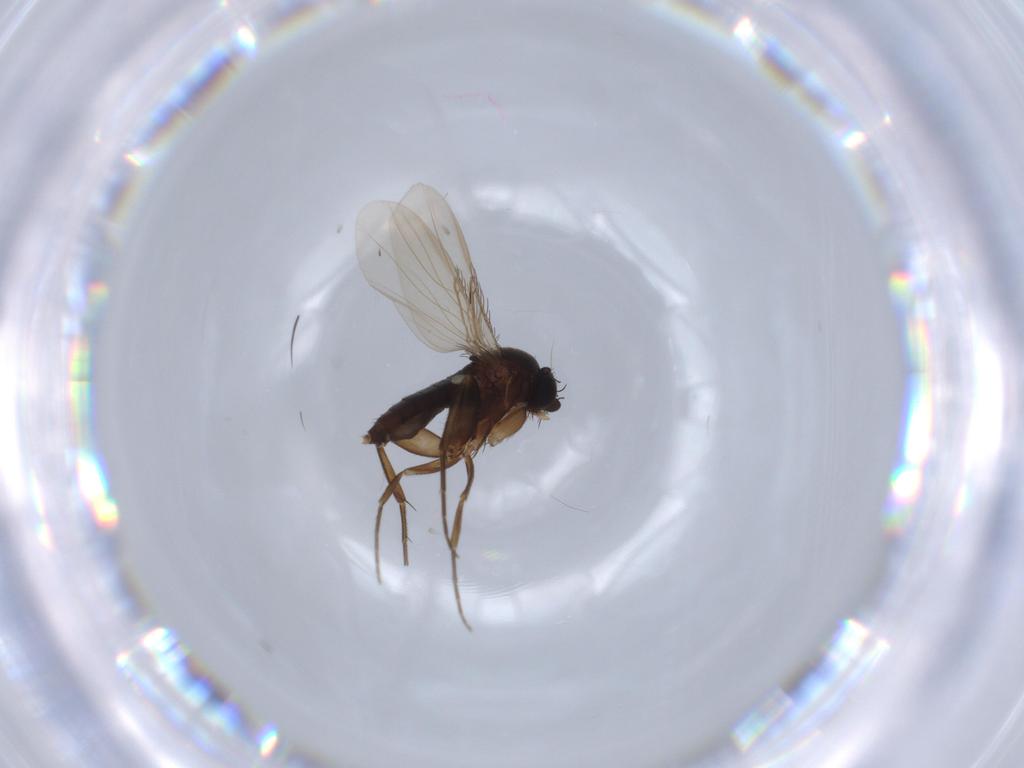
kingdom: Animalia
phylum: Arthropoda
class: Insecta
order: Diptera
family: Phoridae
